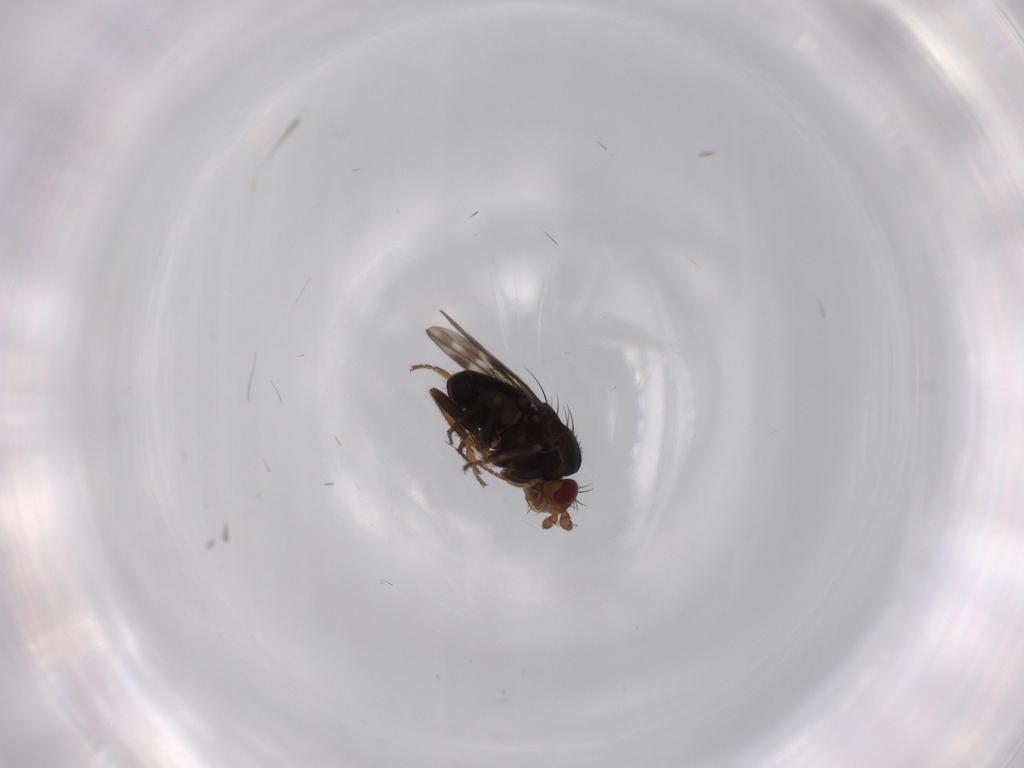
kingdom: Animalia
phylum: Arthropoda
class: Insecta
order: Diptera
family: Sphaeroceridae
